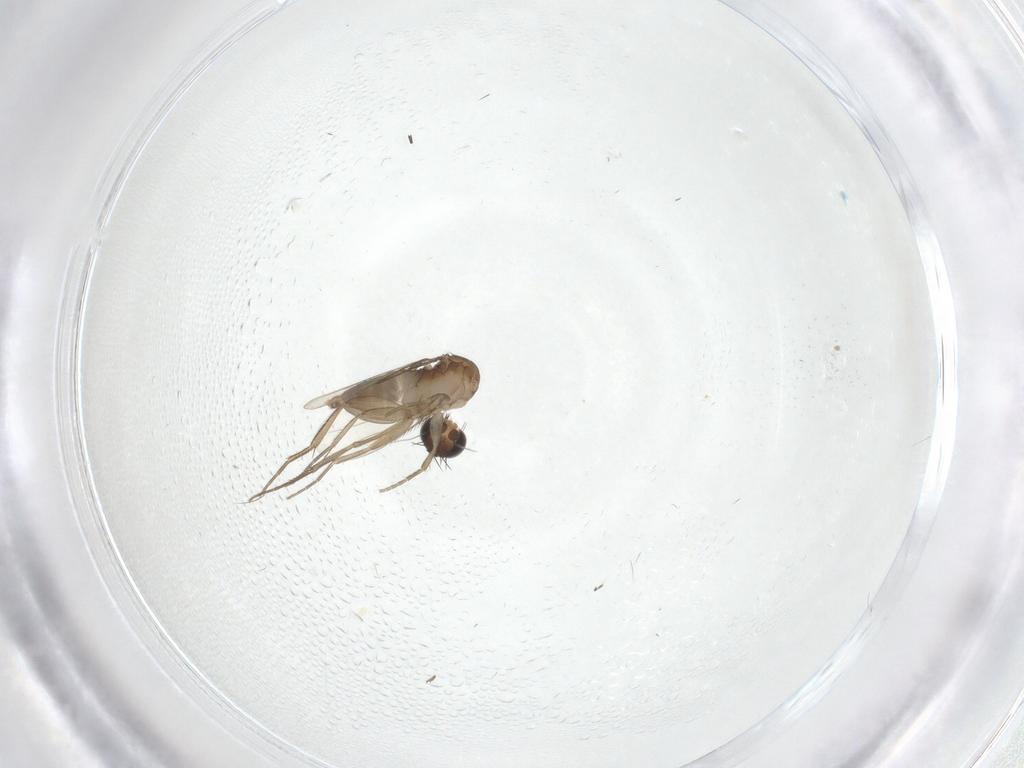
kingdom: Animalia
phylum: Arthropoda
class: Insecta
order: Diptera
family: Phoridae
